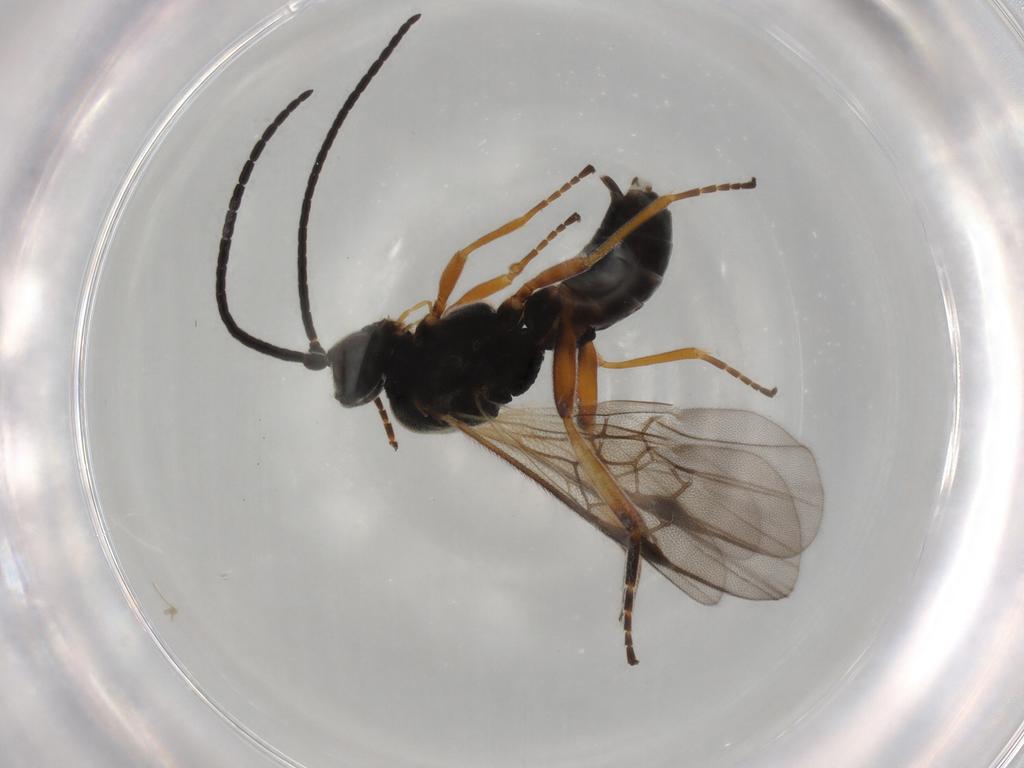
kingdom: Animalia
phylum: Arthropoda
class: Insecta
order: Hymenoptera
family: Braconidae
